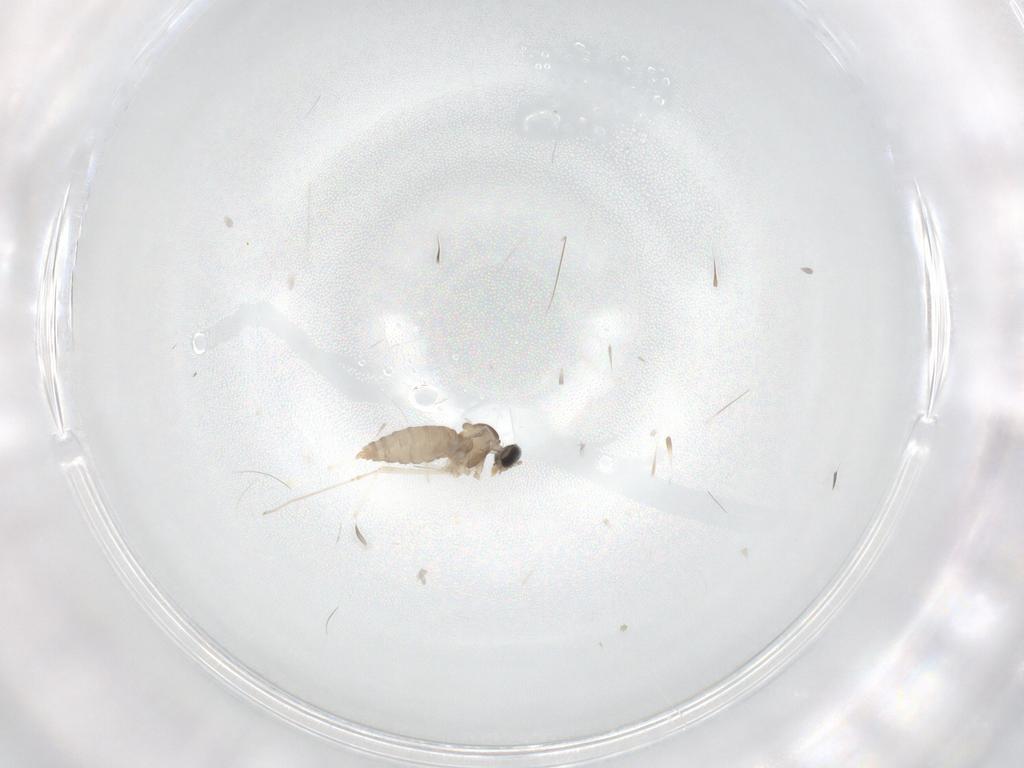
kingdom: Animalia
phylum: Arthropoda
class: Insecta
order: Diptera
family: Cecidomyiidae
